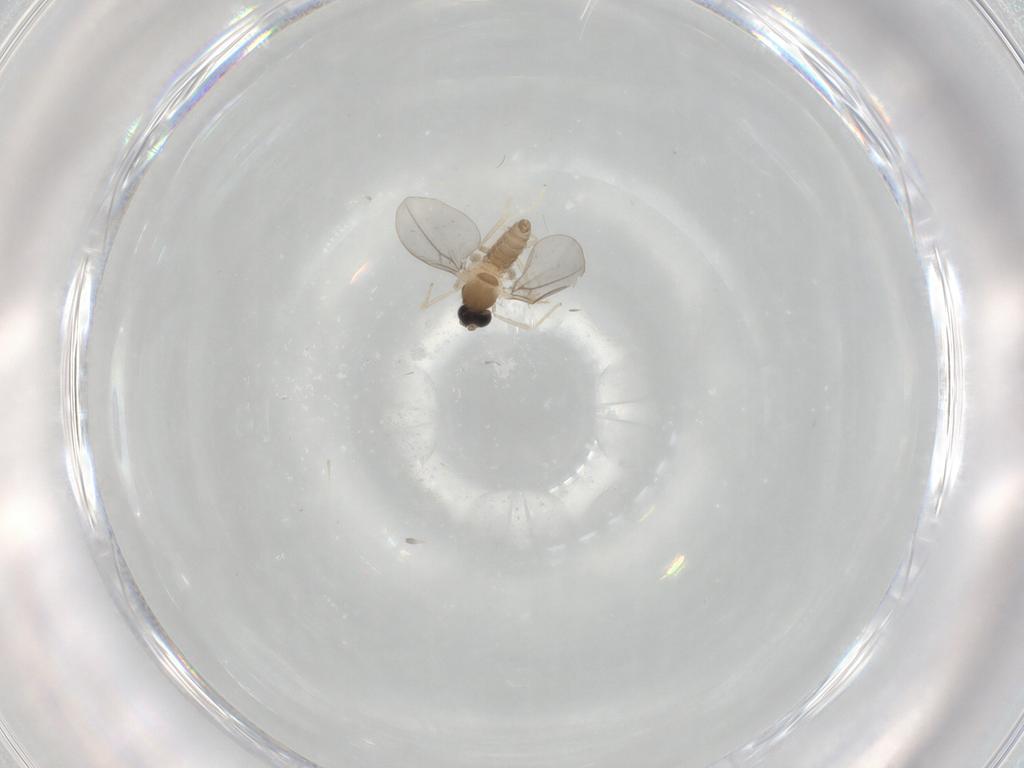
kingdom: Animalia
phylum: Arthropoda
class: Insecta
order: Diptera
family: Cecidomyiidae
